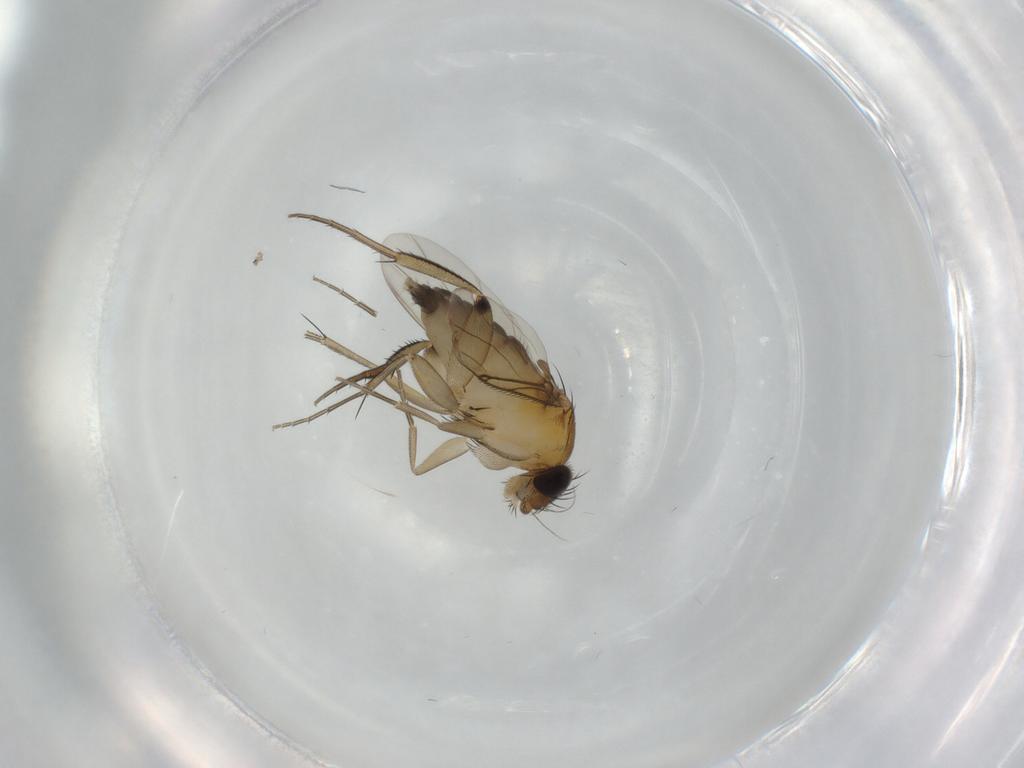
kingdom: Animalia
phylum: Arthropoda
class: Insecta
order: Diptera
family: Phoridae
